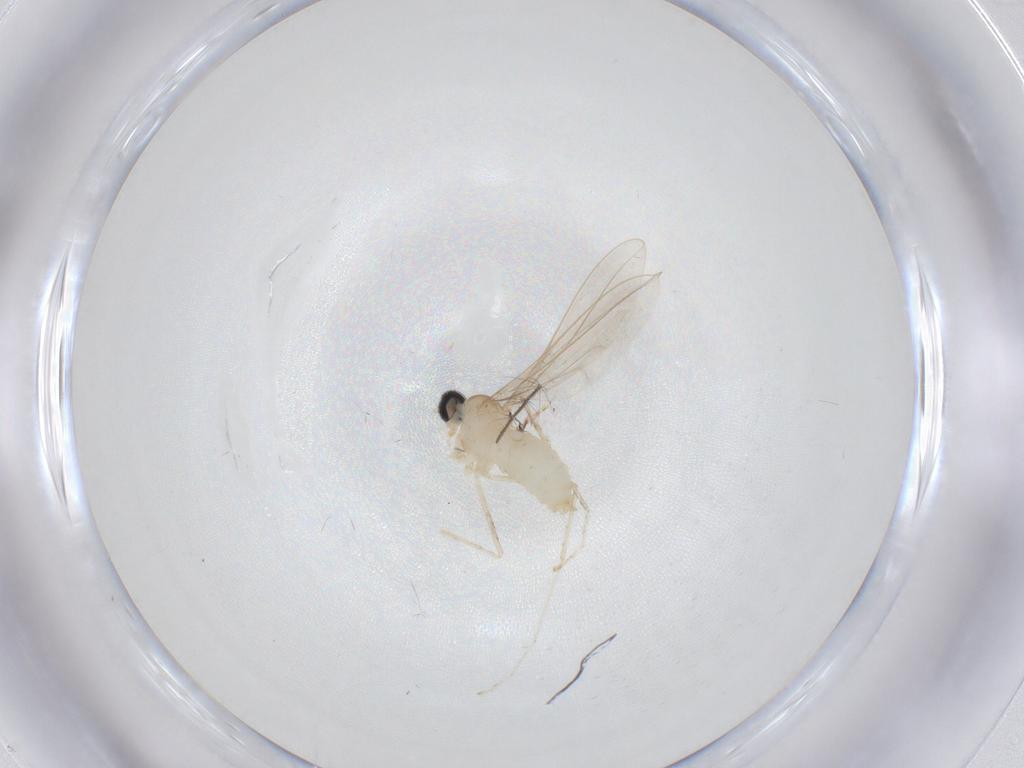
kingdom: Animalia
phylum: Arthropoda
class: Insecta
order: Diptera
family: Cecidomyiidae
